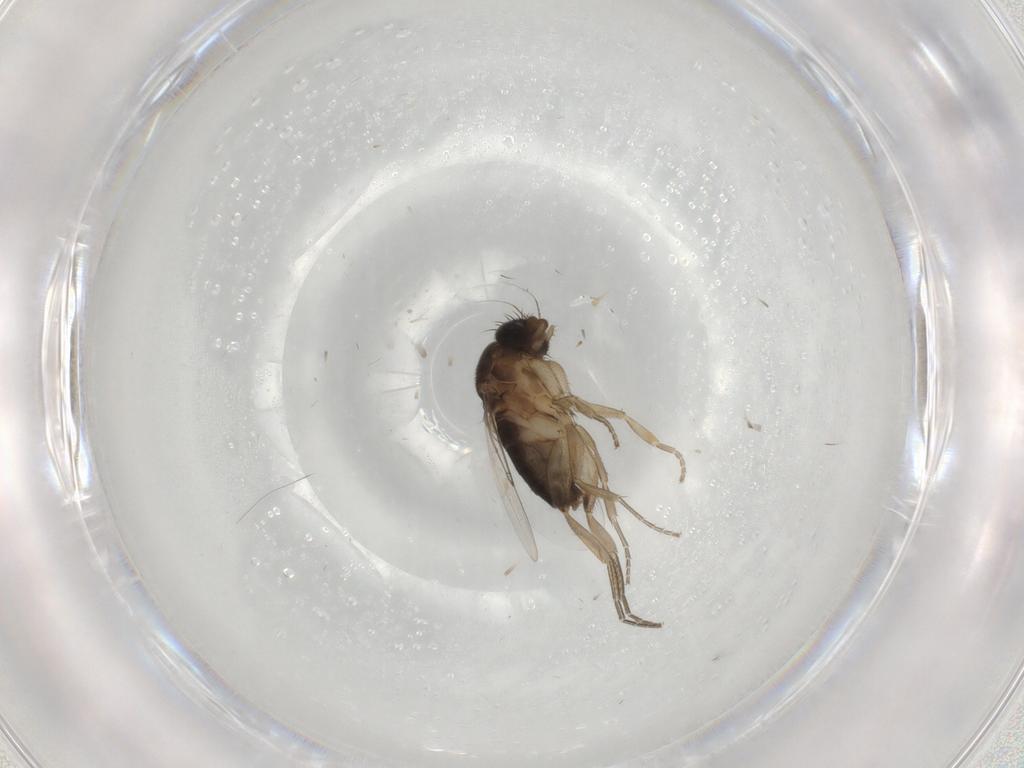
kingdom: Animalia
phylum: Arthropoda
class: Insecta
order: Diptera
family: Phoridae
